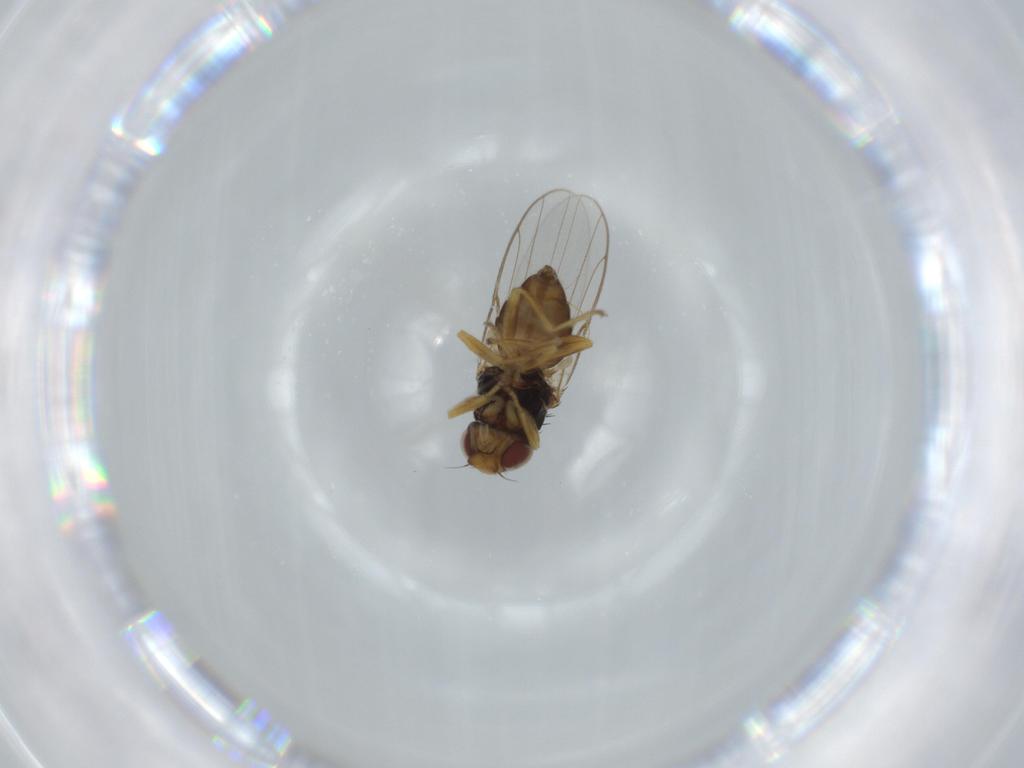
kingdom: Animalia
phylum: Arthropoda
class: Insecta
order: Diptera
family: Chloropidae
